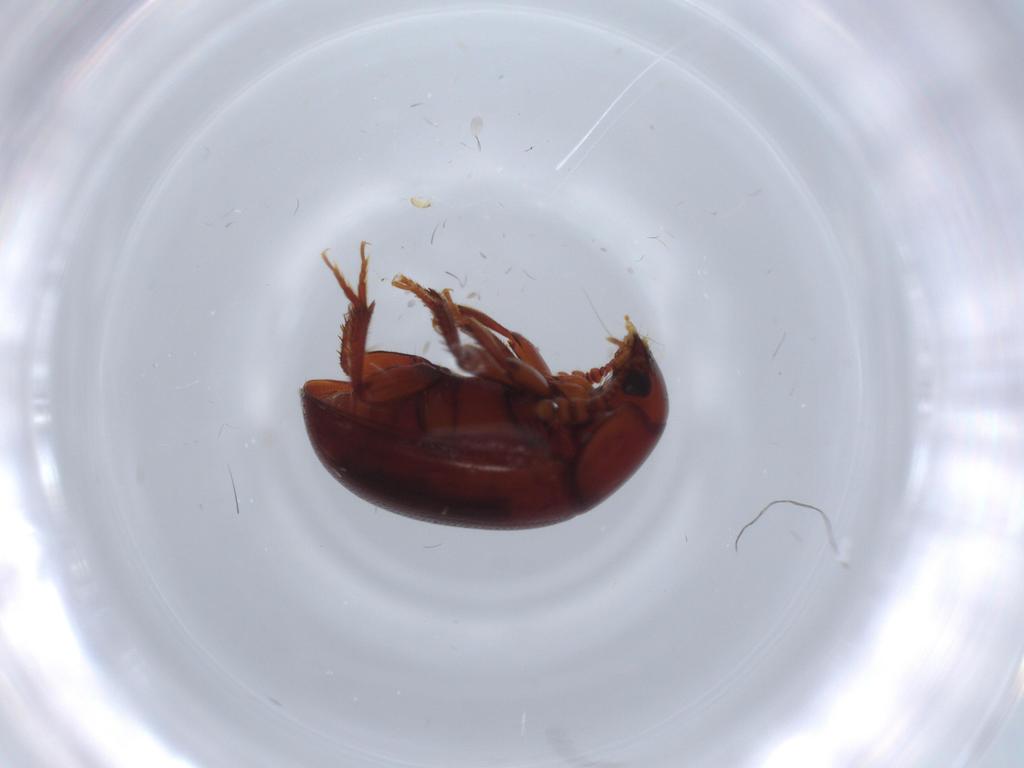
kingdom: Animalia
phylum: Arthropoda
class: Insecta
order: Coleoptera
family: Leiodidae
